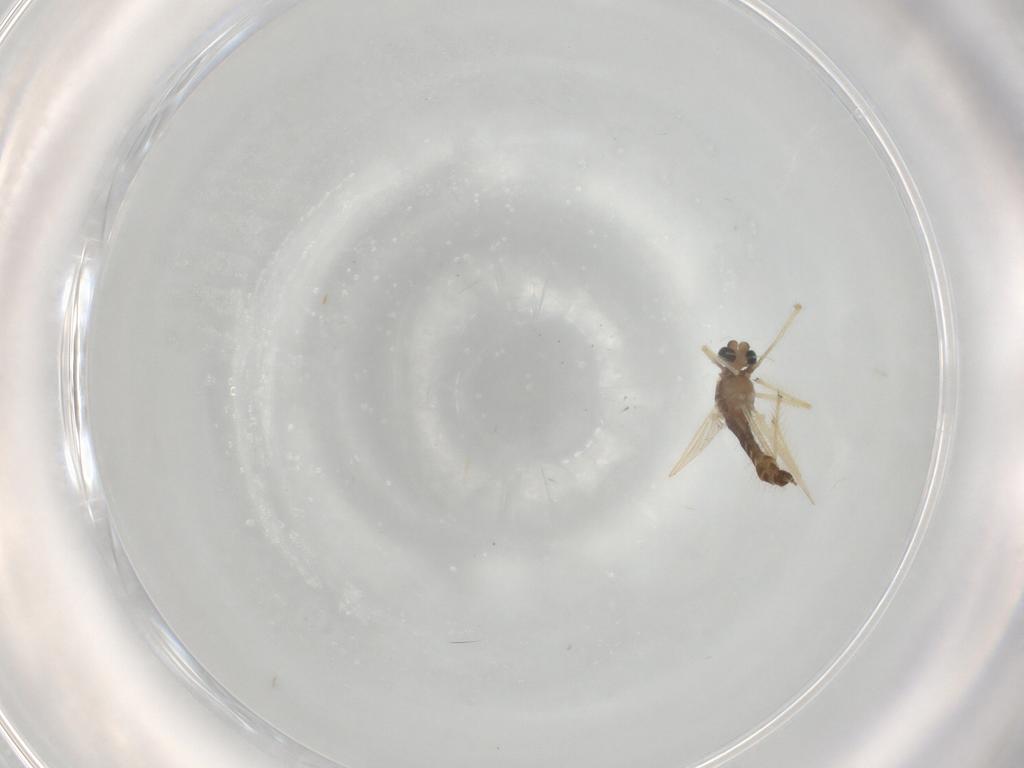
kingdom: Animalia
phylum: Arthropoda
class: Insecta
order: Diptera
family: Chironomidae
